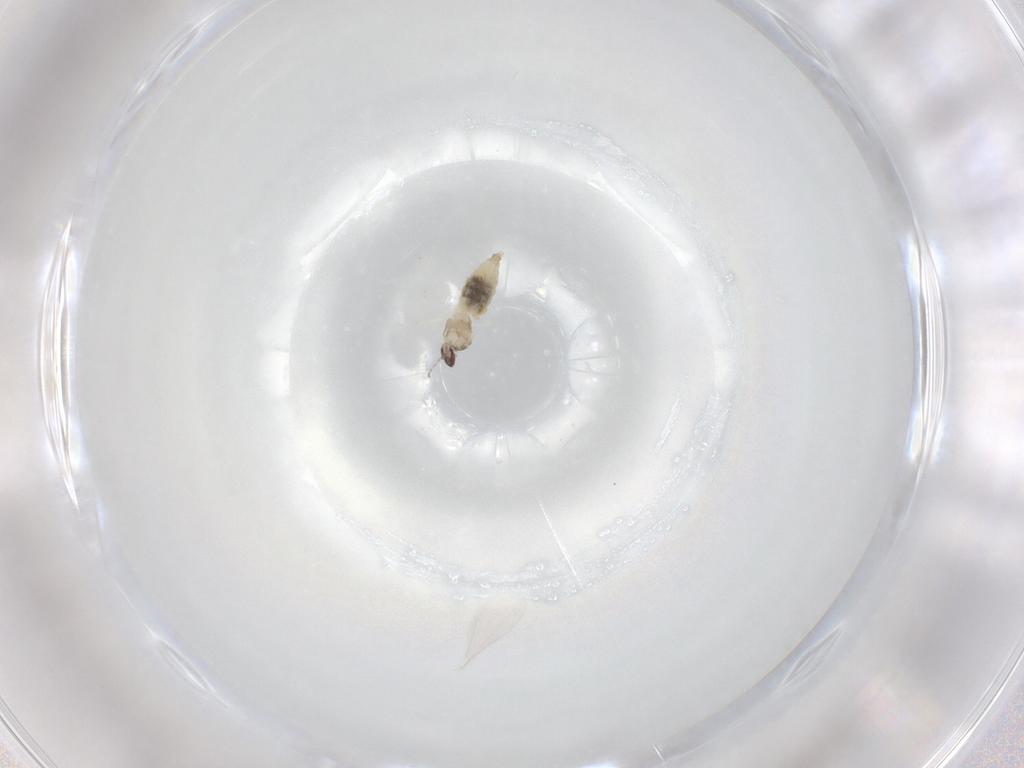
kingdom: Animalia
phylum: Arthropoda
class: Insecta
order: Diptera
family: Cecidomyiidae
